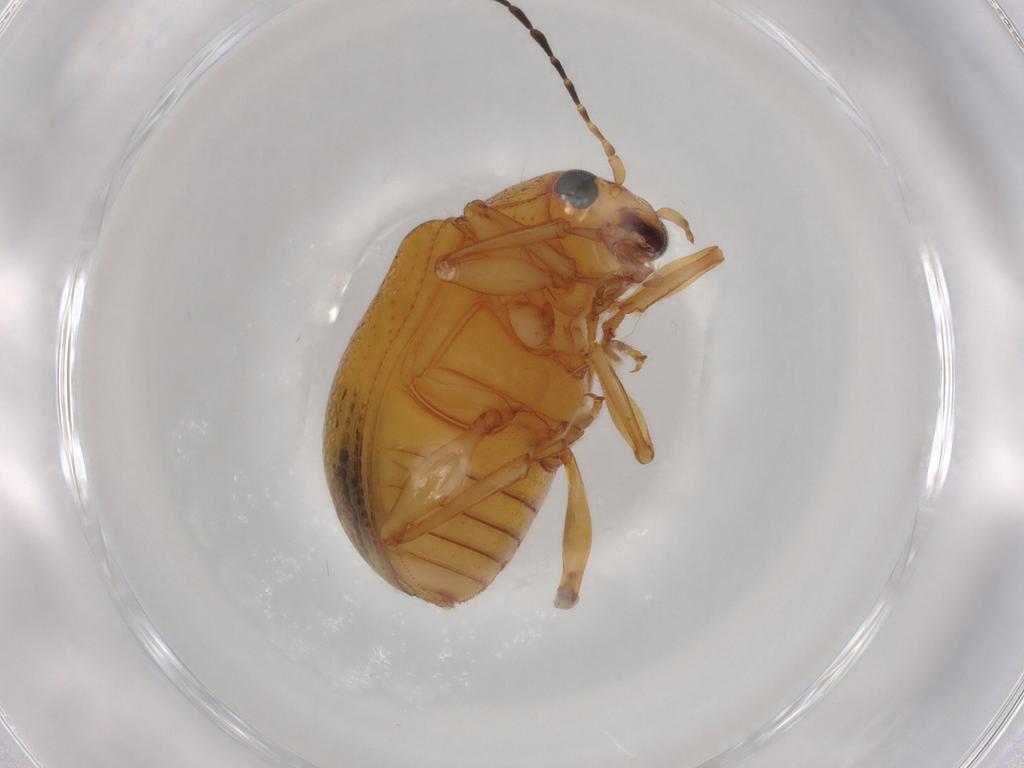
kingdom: Animalia
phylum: Arthropoda
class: Insecta
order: Coleoptera
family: Chrysomelidae
